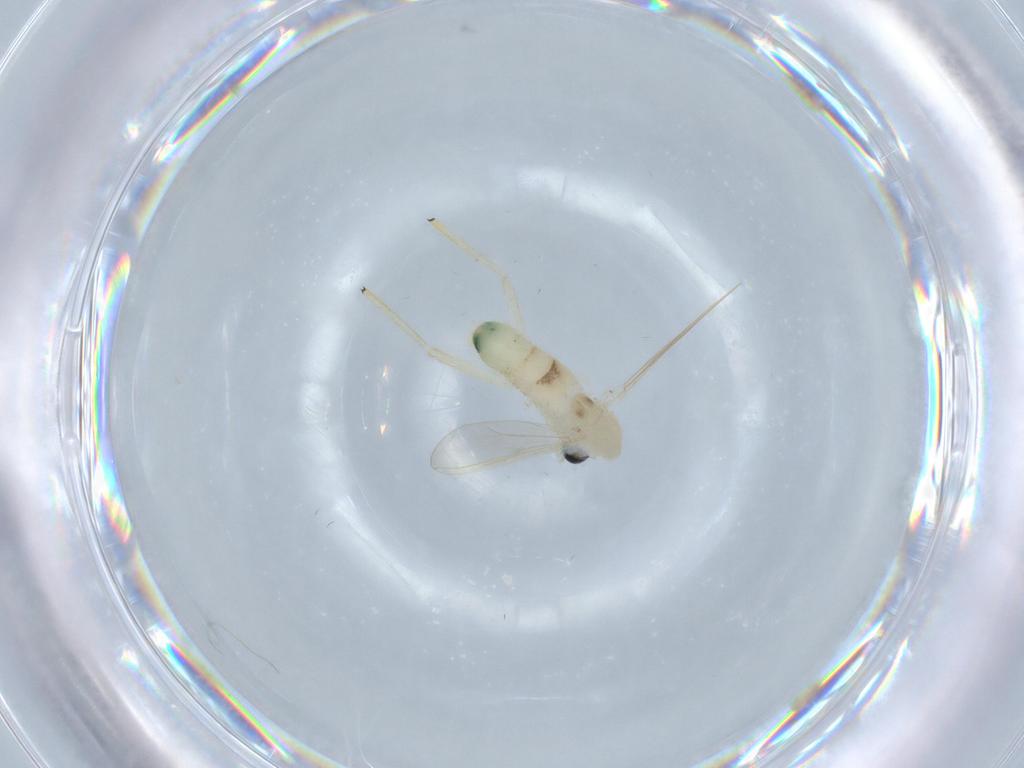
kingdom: Animalia
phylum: Arthropoda
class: Insecta
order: Diptera
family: Chironomidae
